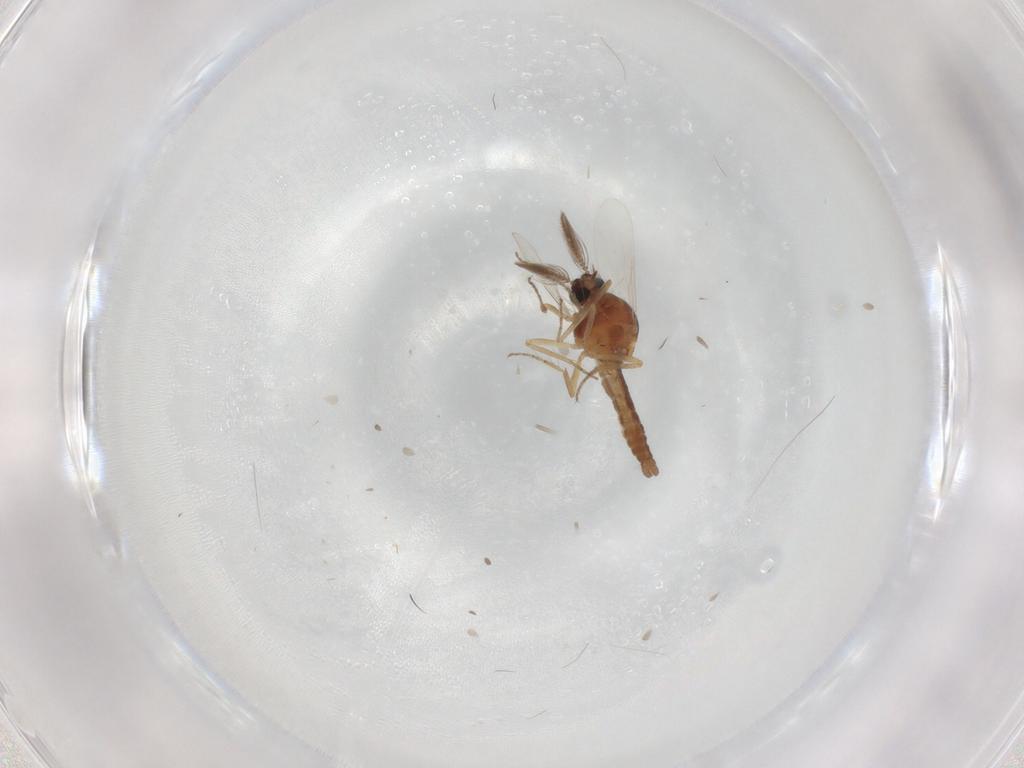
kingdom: Animalia
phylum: Arthropoda
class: Insecta
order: Diptera
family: Ceratopogonidae
